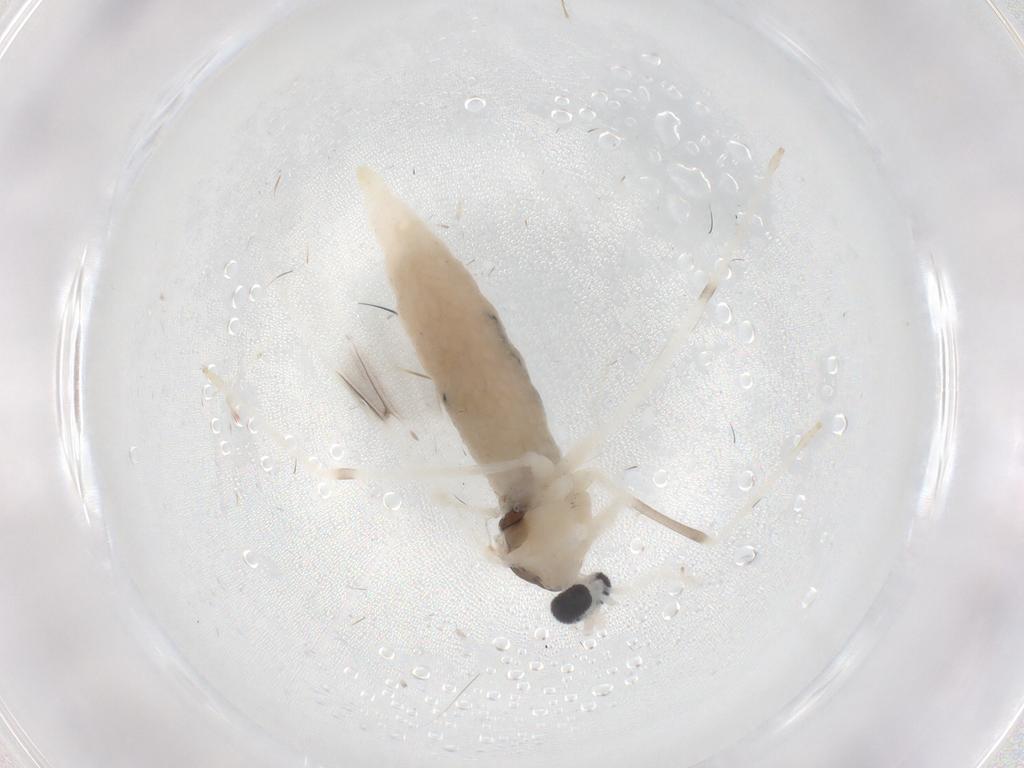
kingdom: Animalia
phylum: Arthropoda
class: Insecta
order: Diptera
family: Cecidomyiidae
